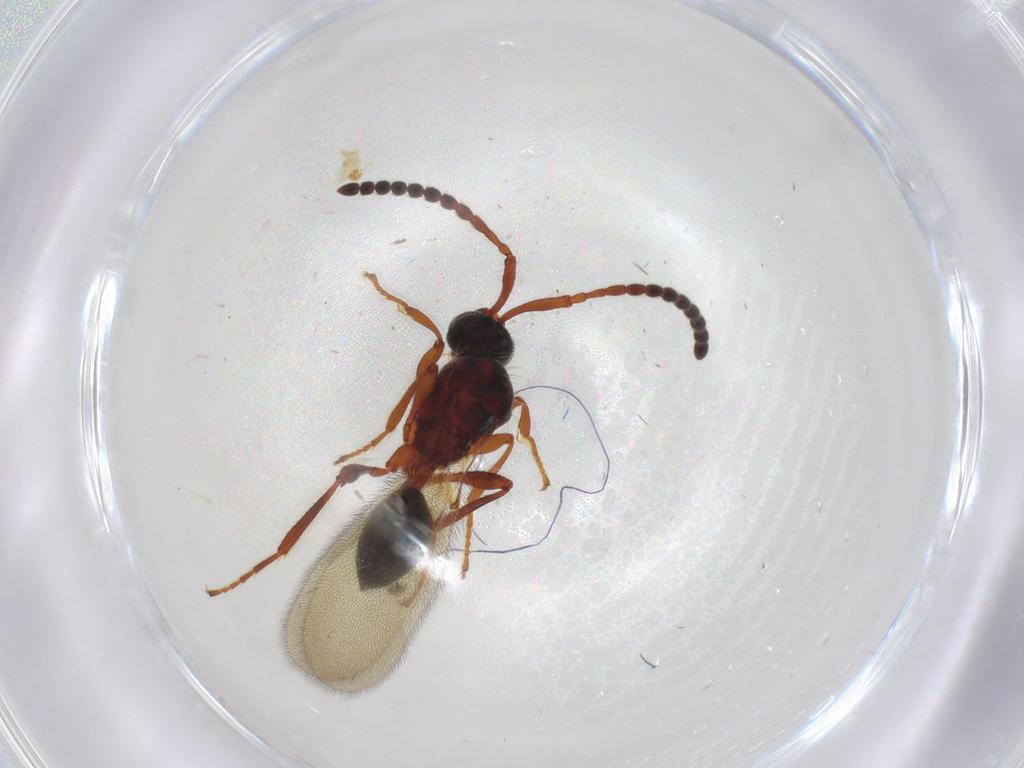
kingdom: Animalia
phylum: Arthropoda
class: Insecta
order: Hymenoptera
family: Diapriidae
